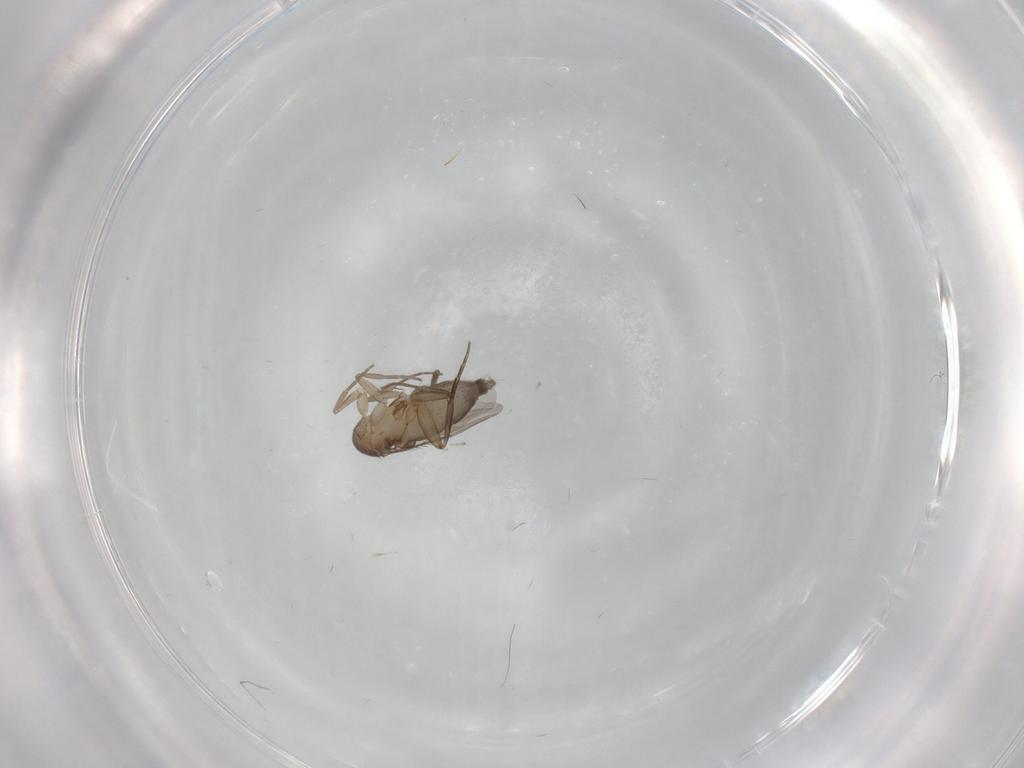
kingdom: Animalia
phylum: Arthropoda
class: Insecta
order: Diptera
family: Phoridae
